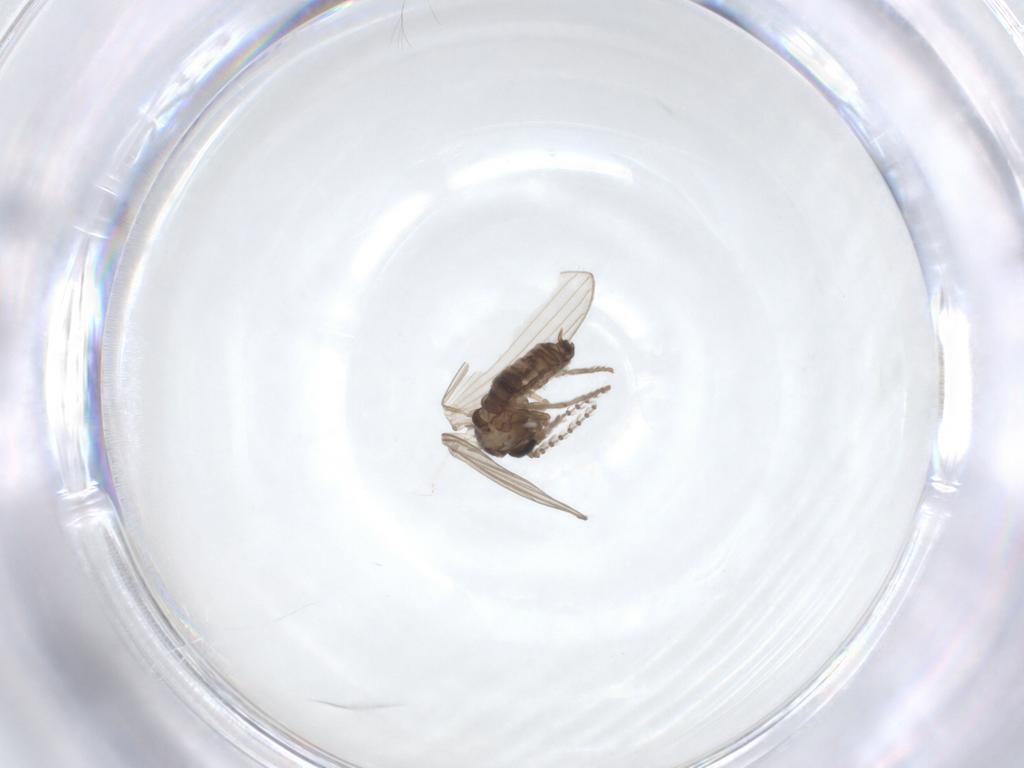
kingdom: Animalia
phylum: Arthropoda
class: Insecta
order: Diptera
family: Psychodidae
